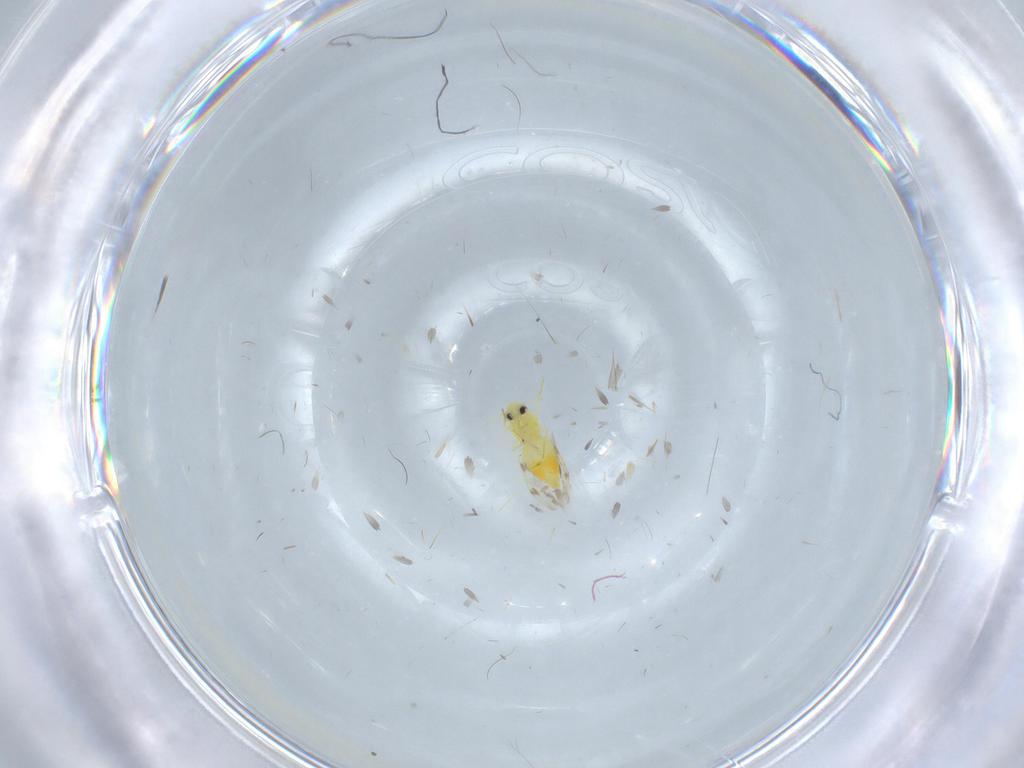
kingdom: Animalia
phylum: Arthropoda
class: Insecta
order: Hemiptera
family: Aleyrodidae
